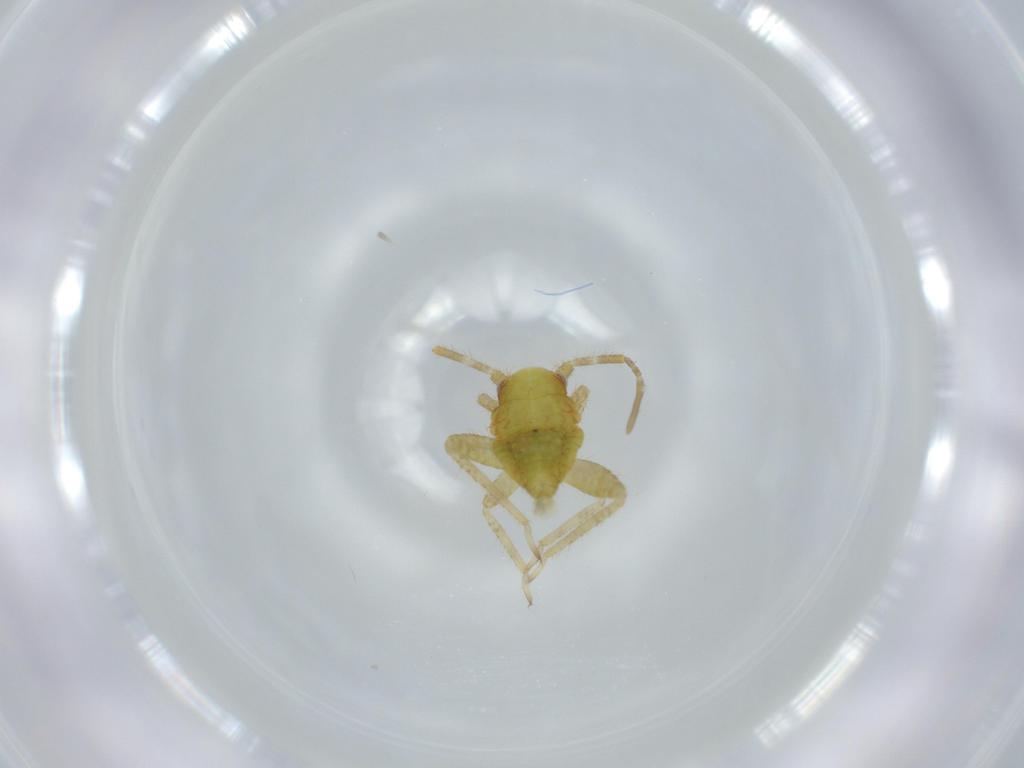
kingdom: Animalia
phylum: Arthropoda
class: Insecta
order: Hemiptera
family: Miridae
